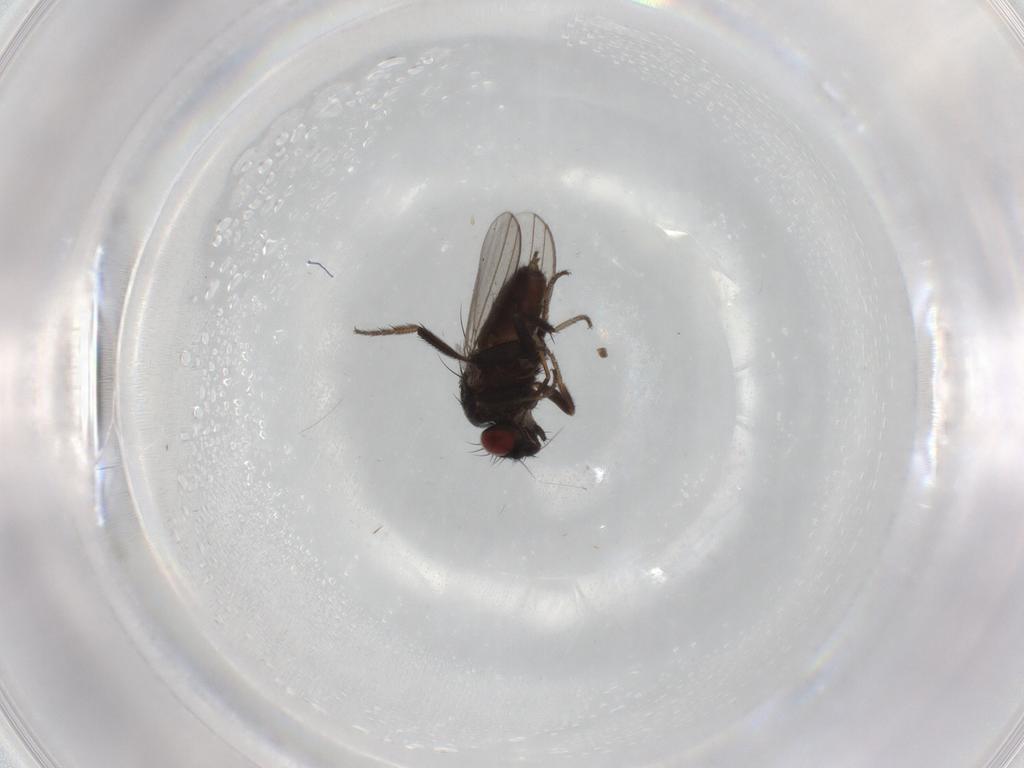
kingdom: Animalia
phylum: Arthropoda
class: Insecta
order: Diptera
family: Milichiidae
